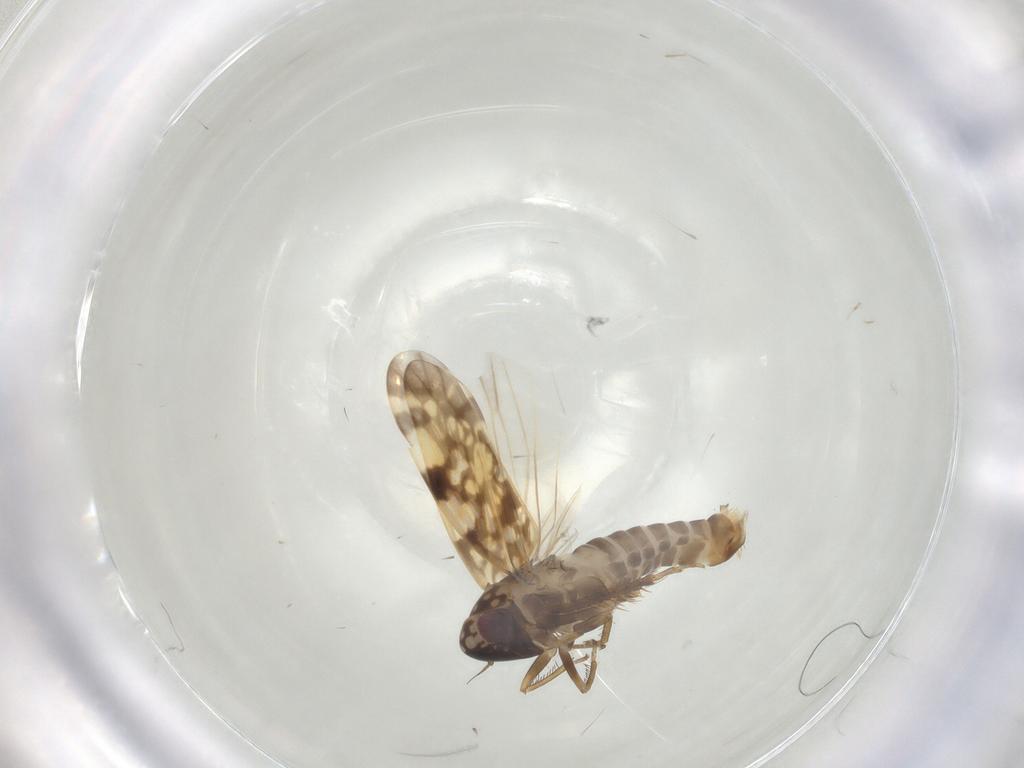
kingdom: Animalia
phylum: Arthropoda
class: Insecta
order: Hemiptera
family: Cicadellidae
